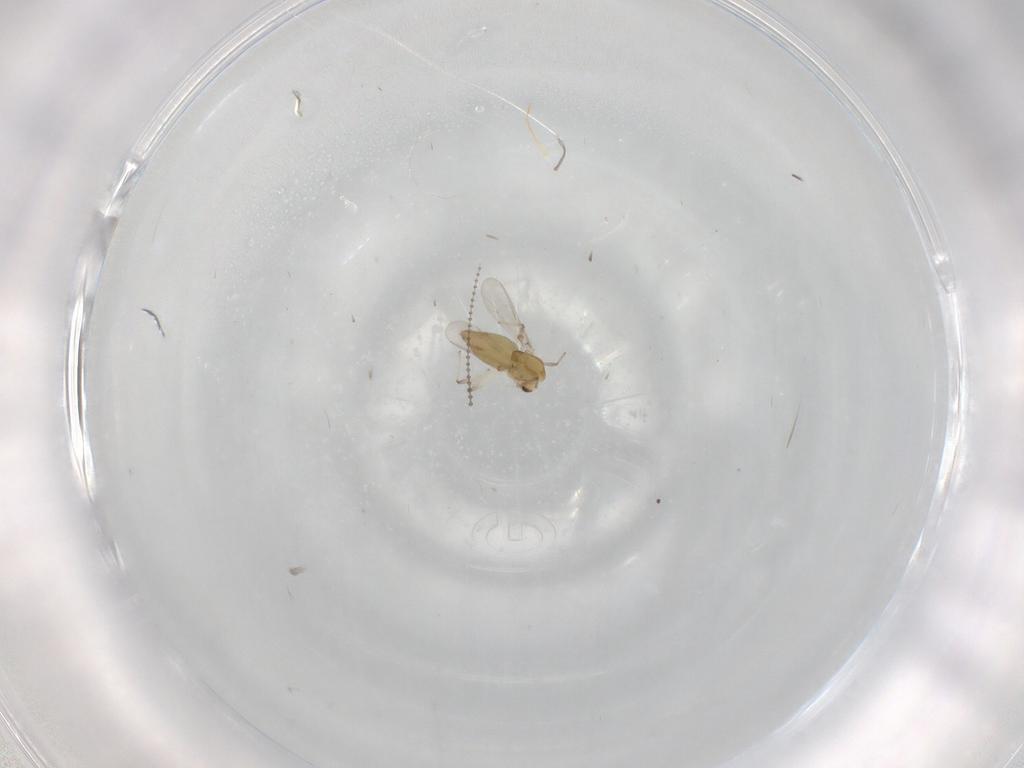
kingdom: Animalia
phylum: Arthropoda
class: Insecta
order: Diptera
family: Chironomidae
